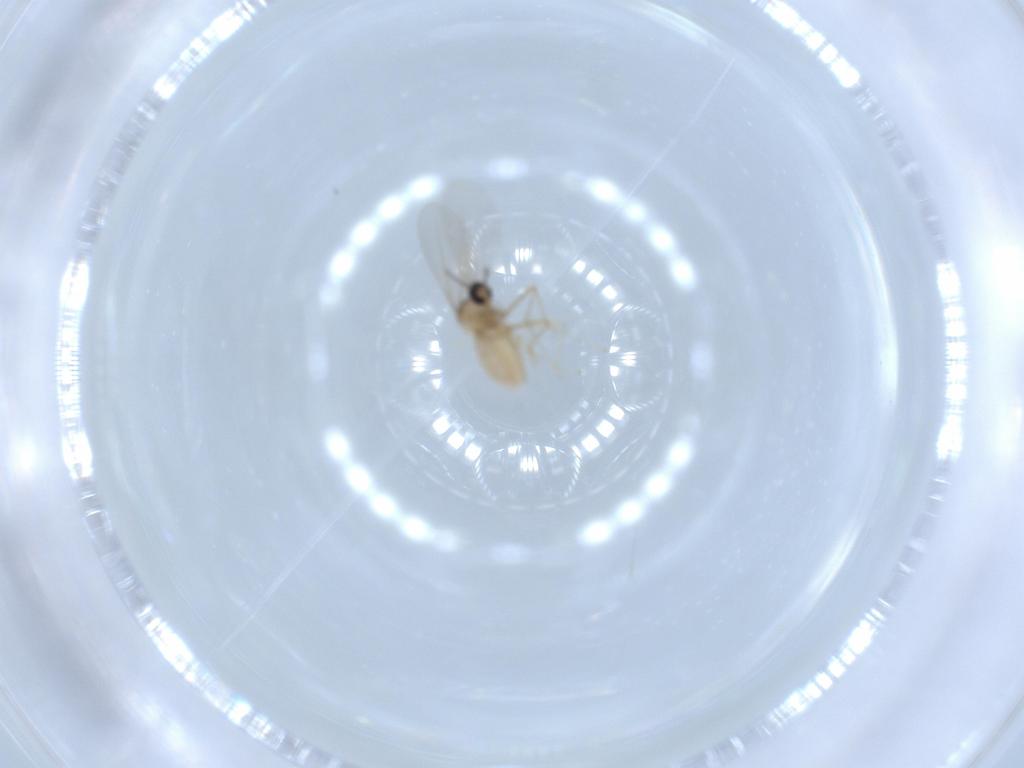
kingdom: Animalia
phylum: Arthropoda
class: Insecta
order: Diptera
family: Cecidomyiidae
